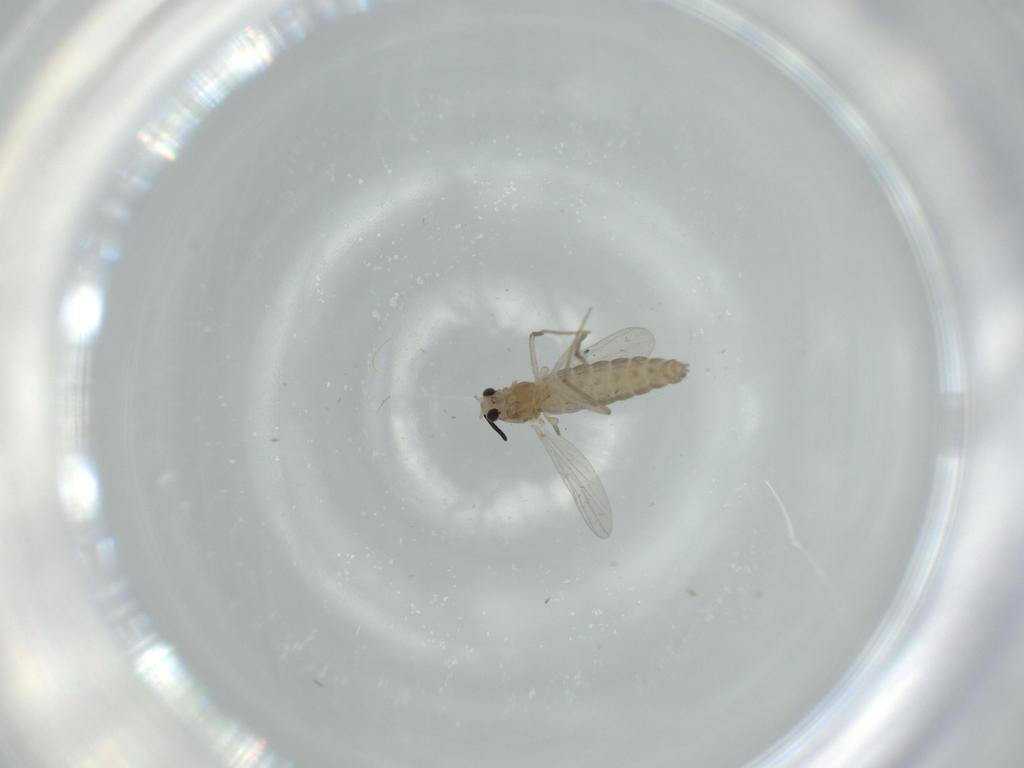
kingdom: Animalia
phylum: Arthropoda
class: Insecta
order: Diptera
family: Chironomidae
